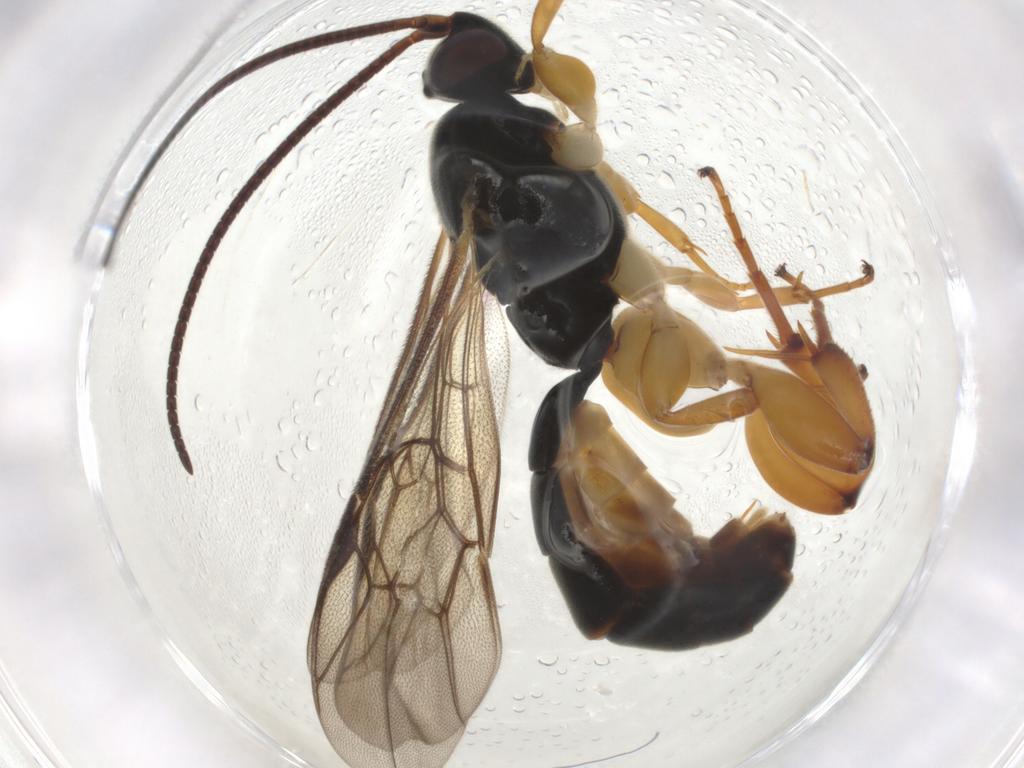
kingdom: Animalia
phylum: Arthropoda
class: Insecta
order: Hymenoptera
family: Ichneumonidae
